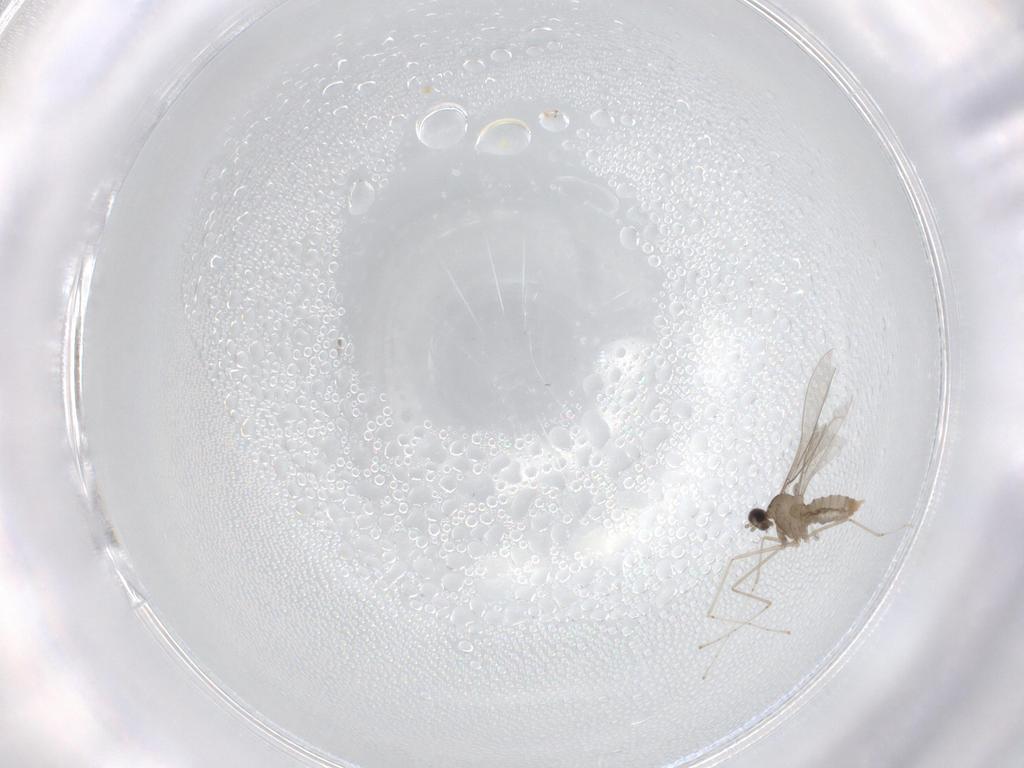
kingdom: Animalia
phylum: Arthropoda
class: Insecta
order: Diptera
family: Cecidomyiidae
